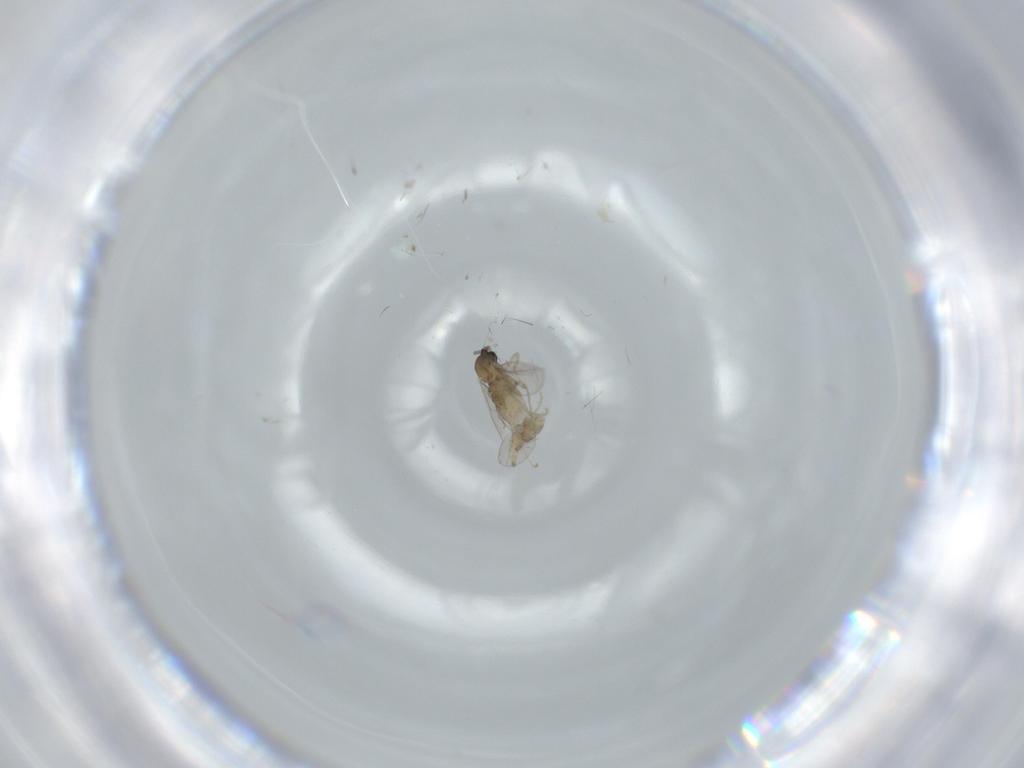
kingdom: Animalia
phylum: Arthropoda
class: Insecta
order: Diptera
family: Cecidomyiidae
